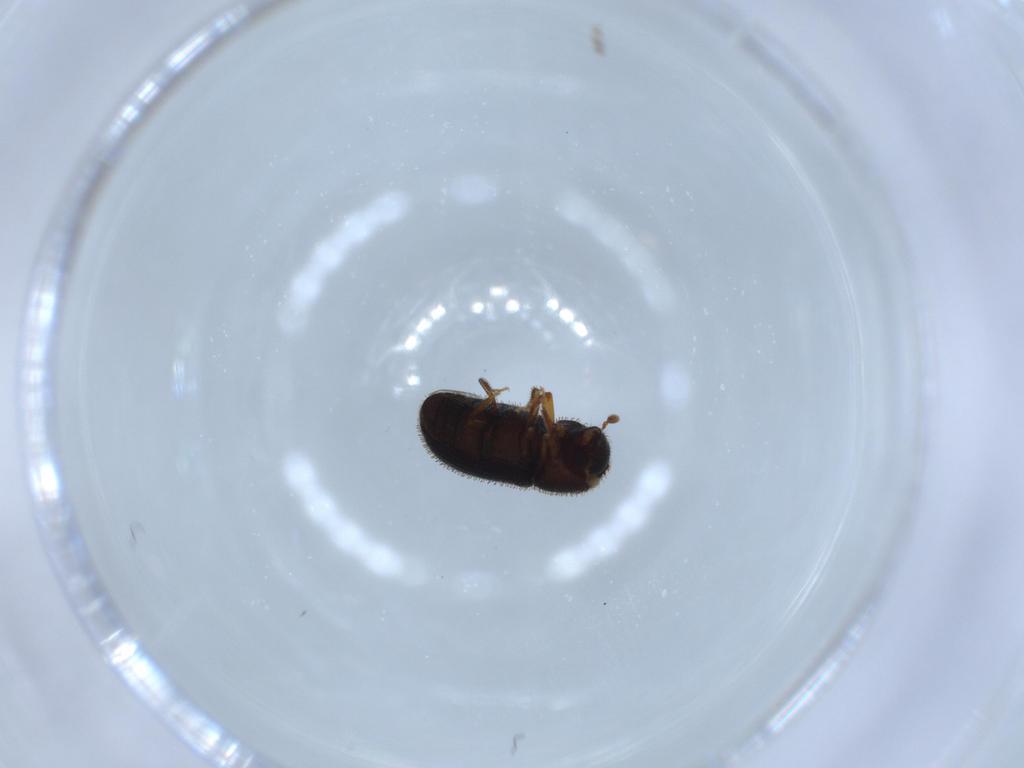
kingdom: Animalia
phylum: Arthropoda
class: Insecta
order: Coleoptera
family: Curculionidae
